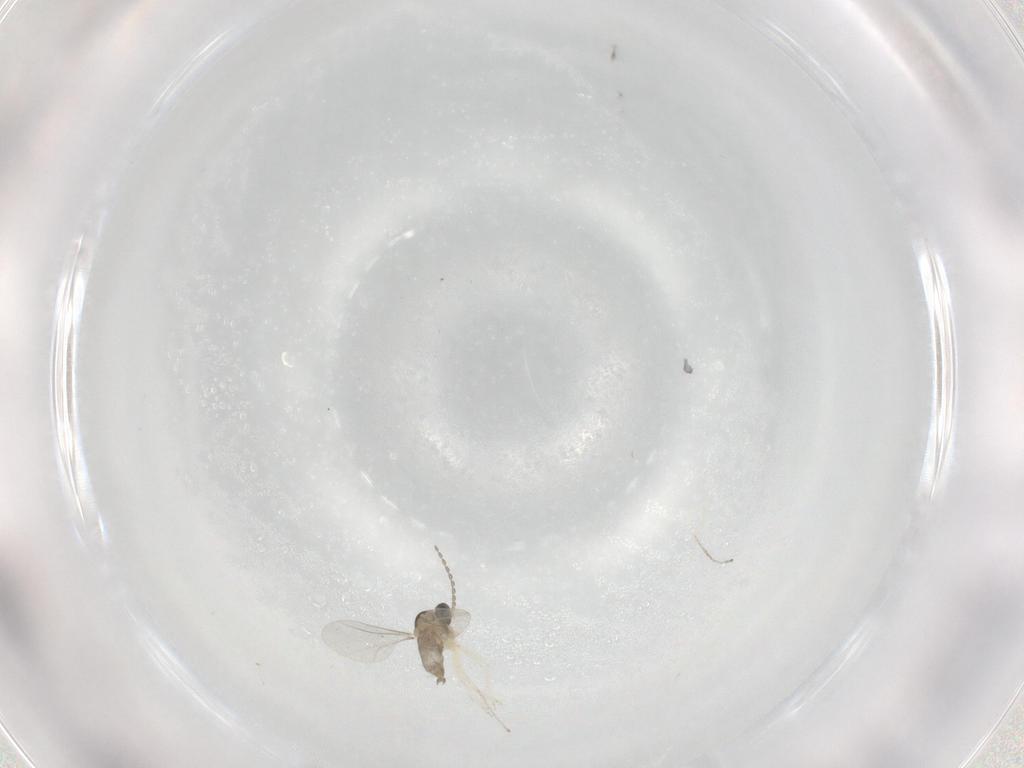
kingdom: Animalia
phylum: Arthropoda
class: Insecta
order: Diptera
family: Cecidomyiidae
